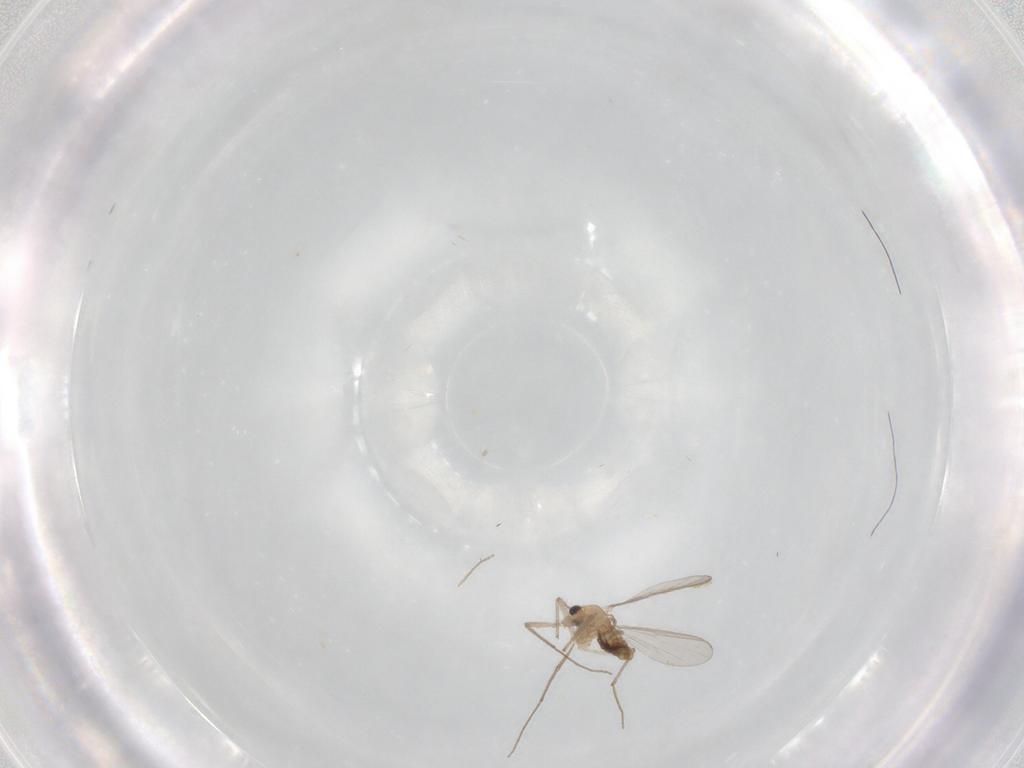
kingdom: Animalia
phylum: Arthropoda
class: Insecta
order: Diptera
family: Chironomidae
